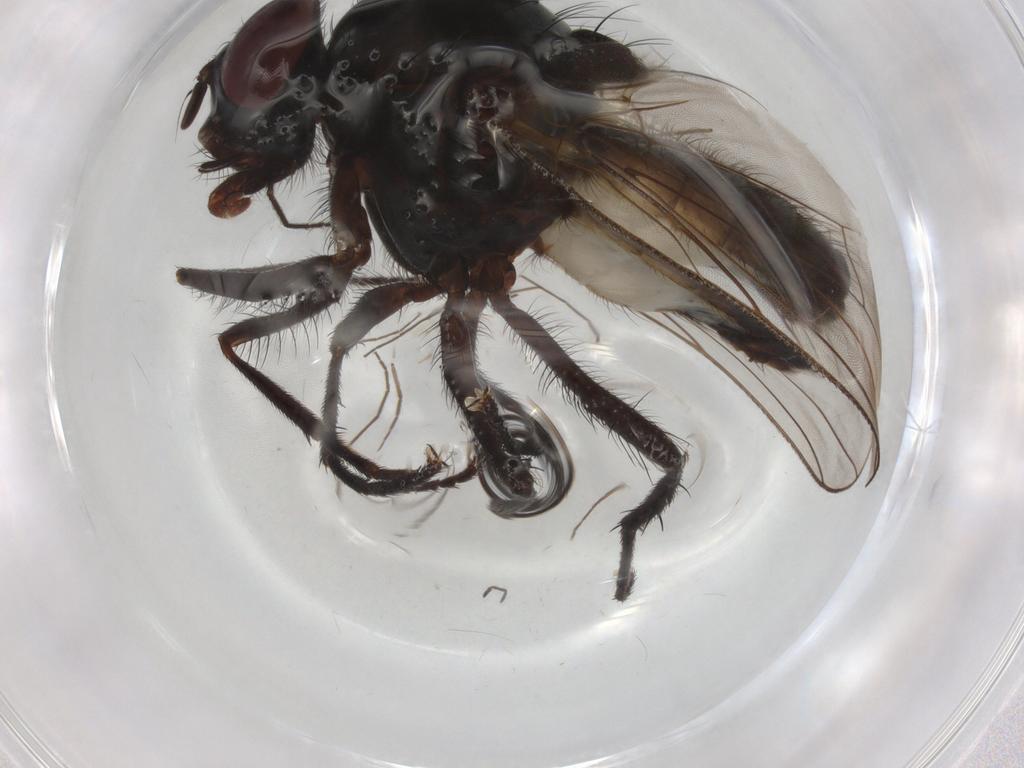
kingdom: Animalia
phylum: Arthropoda
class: Insecta
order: Diptera
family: Anthomyiidae
